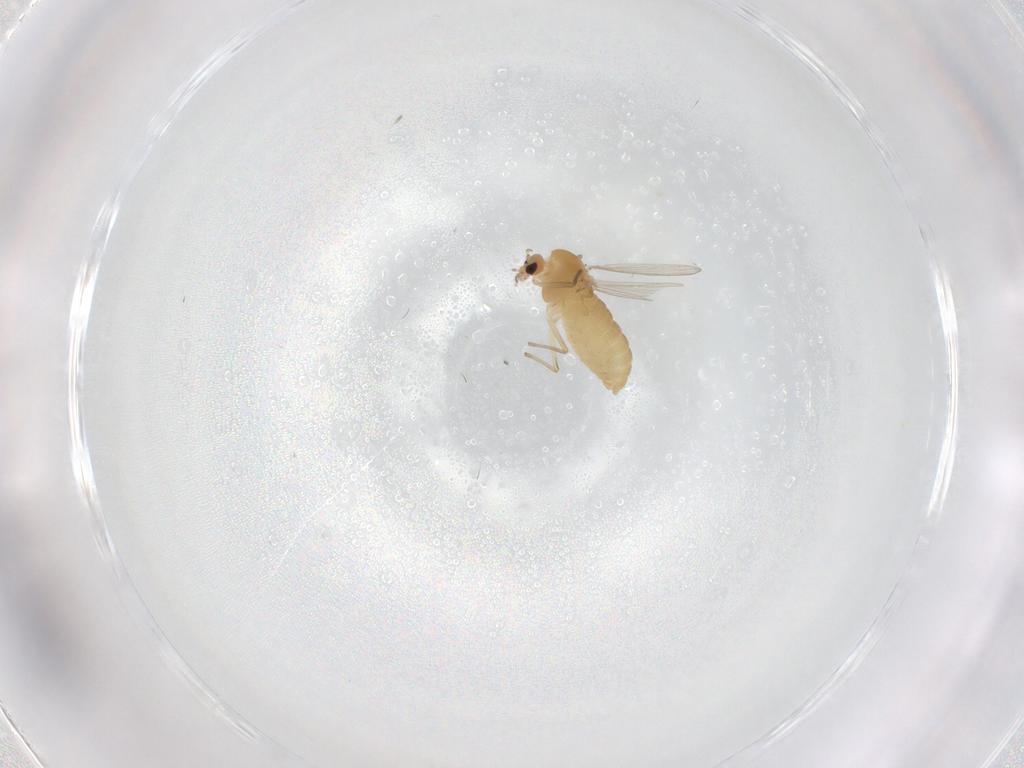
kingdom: Animalia
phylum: Arthropoda
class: Insecta
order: Diptera
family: Chironomidae
